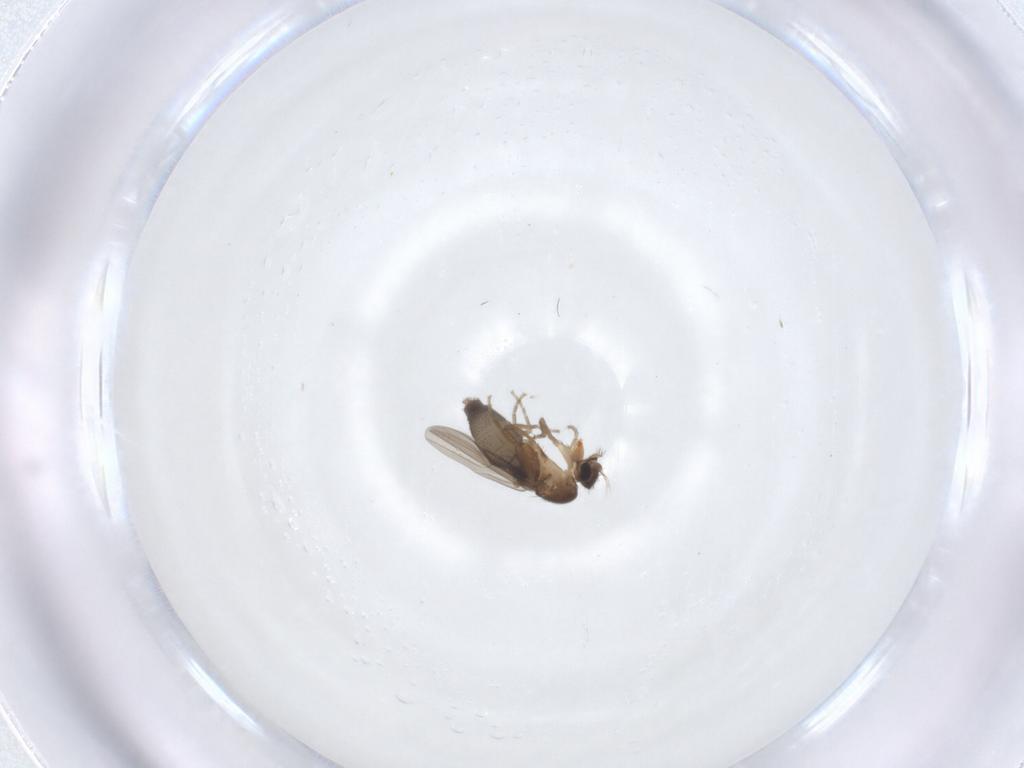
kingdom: Animalia
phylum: Arthropoda
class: Insecta
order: Diptera
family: Phoridae
